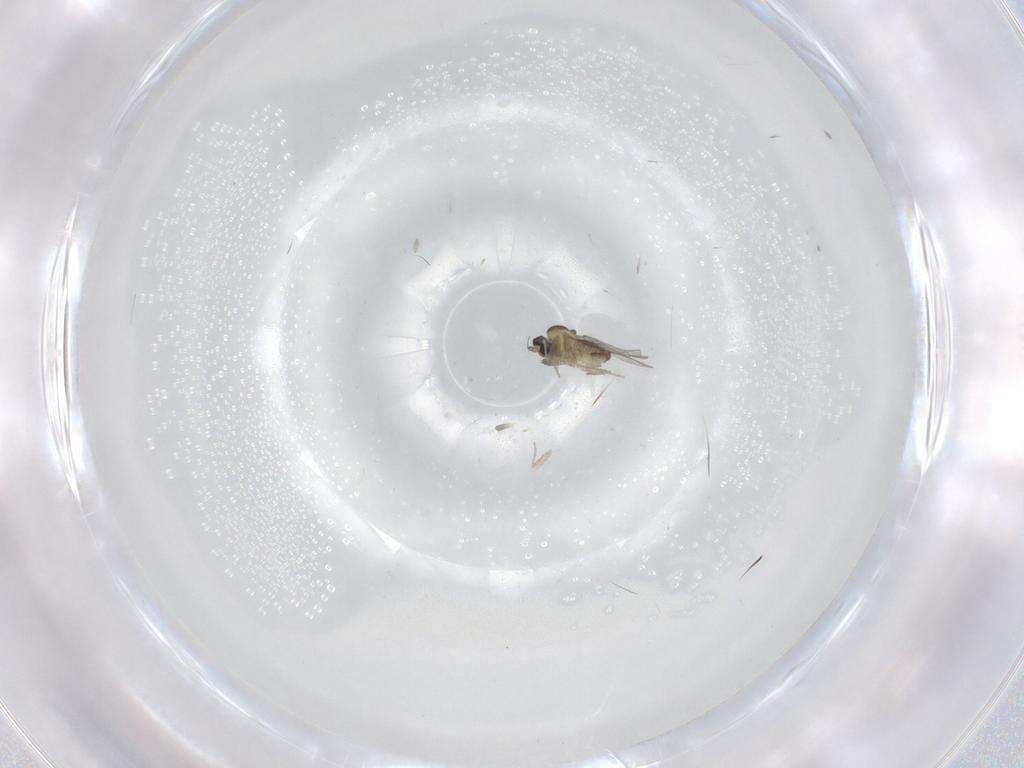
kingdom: Animalia
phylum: Arthropoda
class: Insecta
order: Diptera
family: Cecidomyiidae
